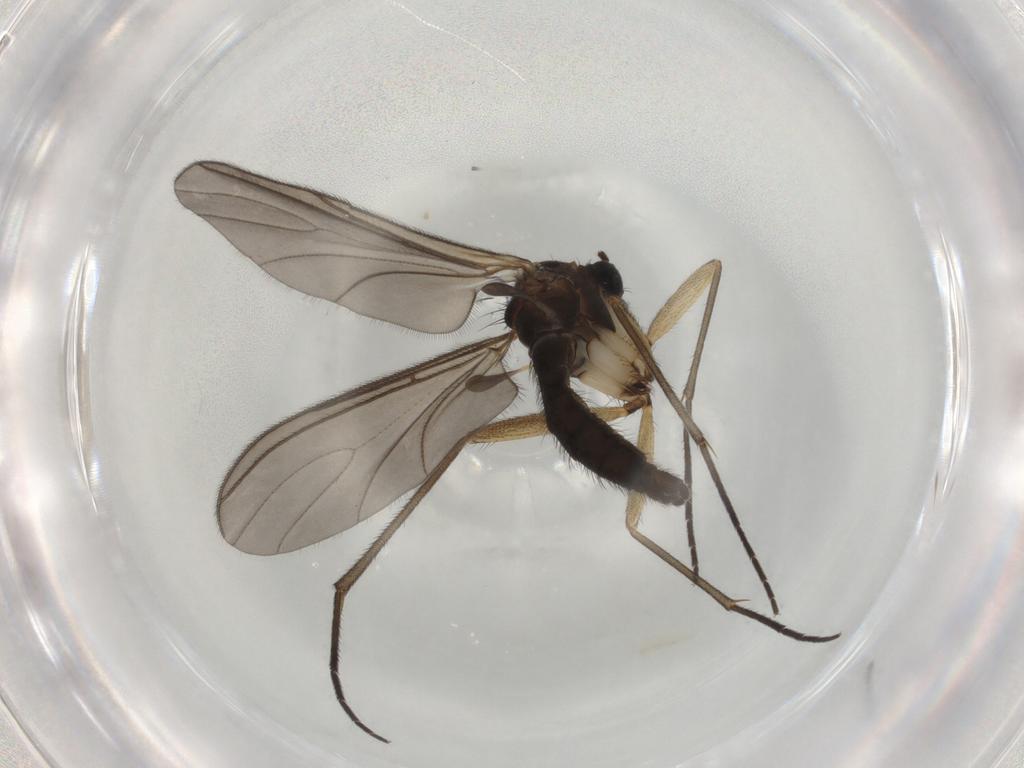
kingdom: Animalia
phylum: Arthropoda
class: Insecta
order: Diptera
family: Sciaridae
